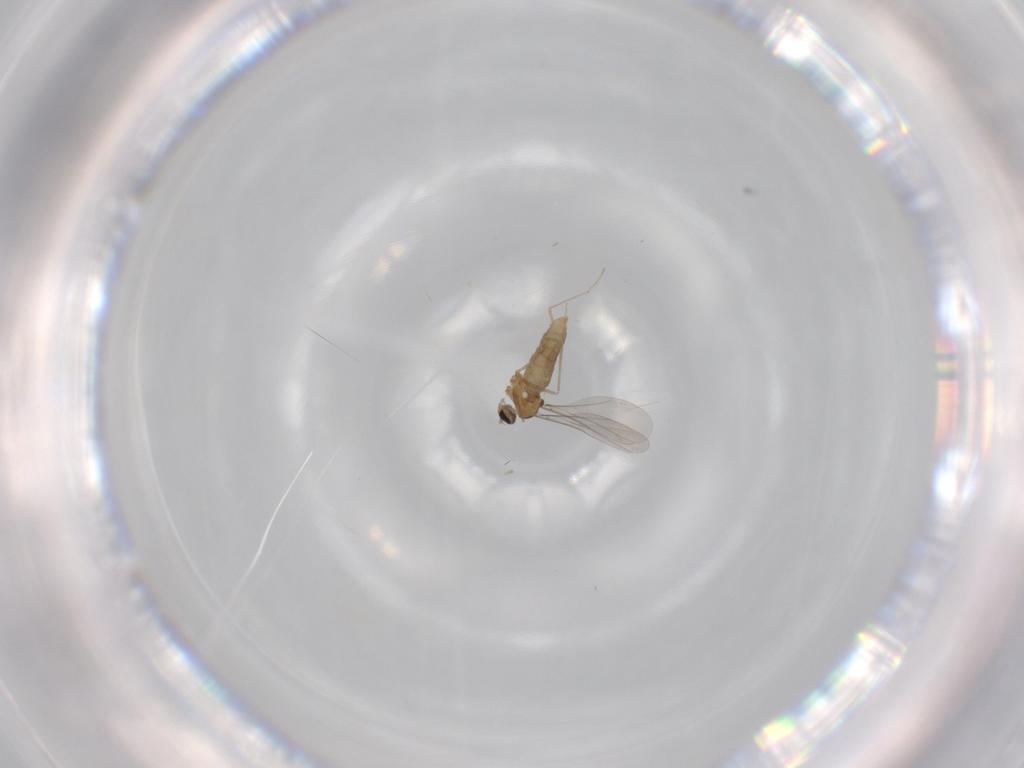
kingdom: Animalia
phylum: Arthropoda
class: Insecta
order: Diptera
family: Cecidomyiidae
